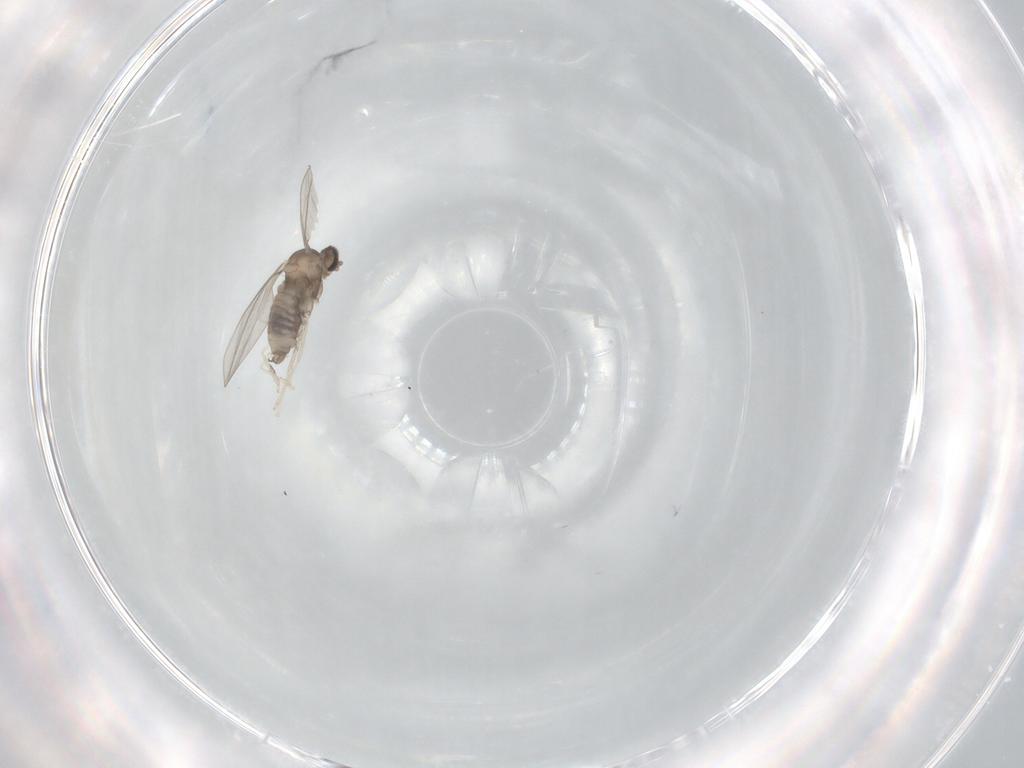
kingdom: Animalia
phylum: Arthropoda
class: Insecta
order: Diptera
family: Cecidomyiidae
